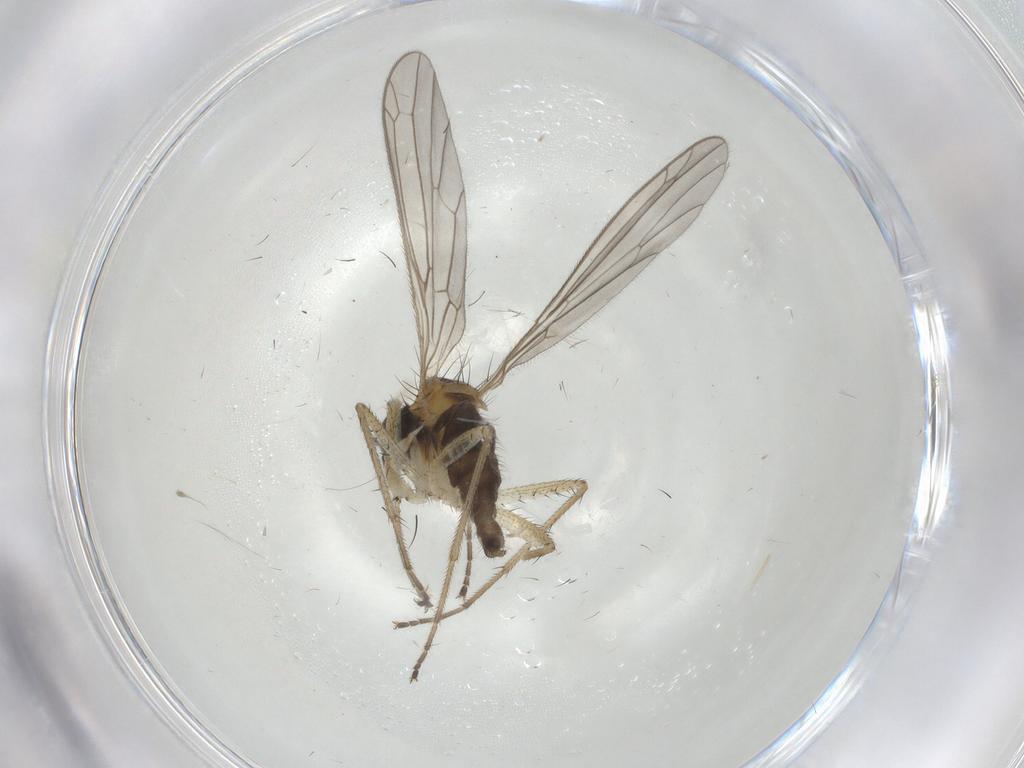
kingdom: Animalia
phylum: Arthropoda
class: Insecta
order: Diptera
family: Empididae
